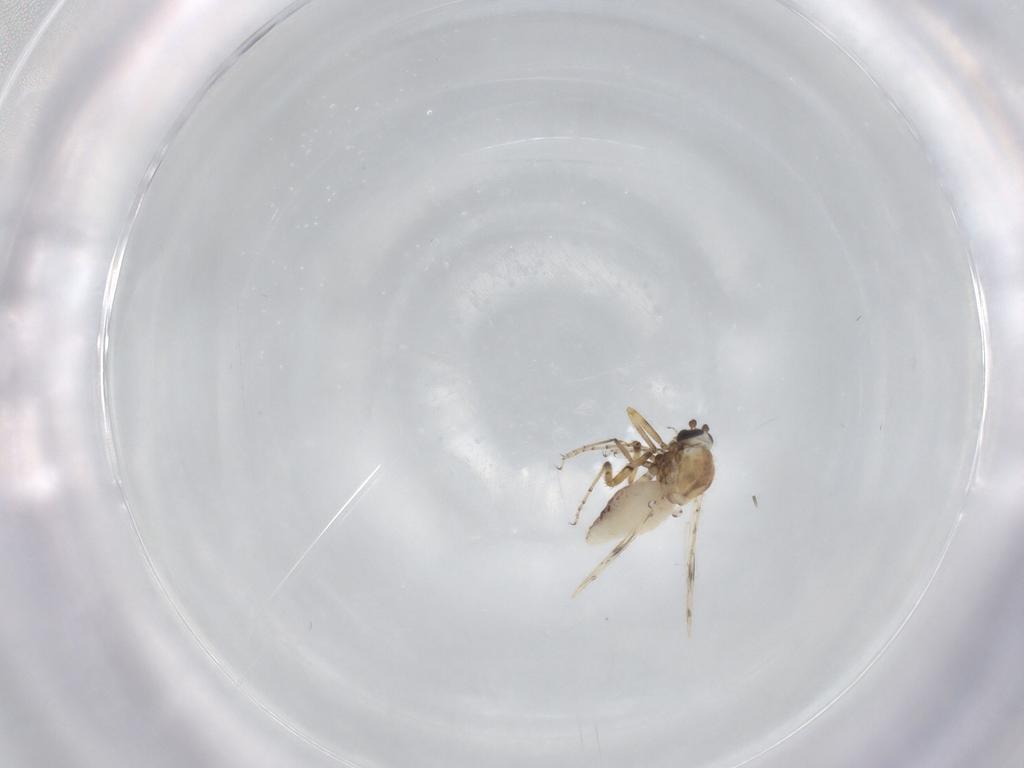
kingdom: Animalia
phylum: Arthropoda
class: Insecta
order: Diptera
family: Ceratopogonidae
